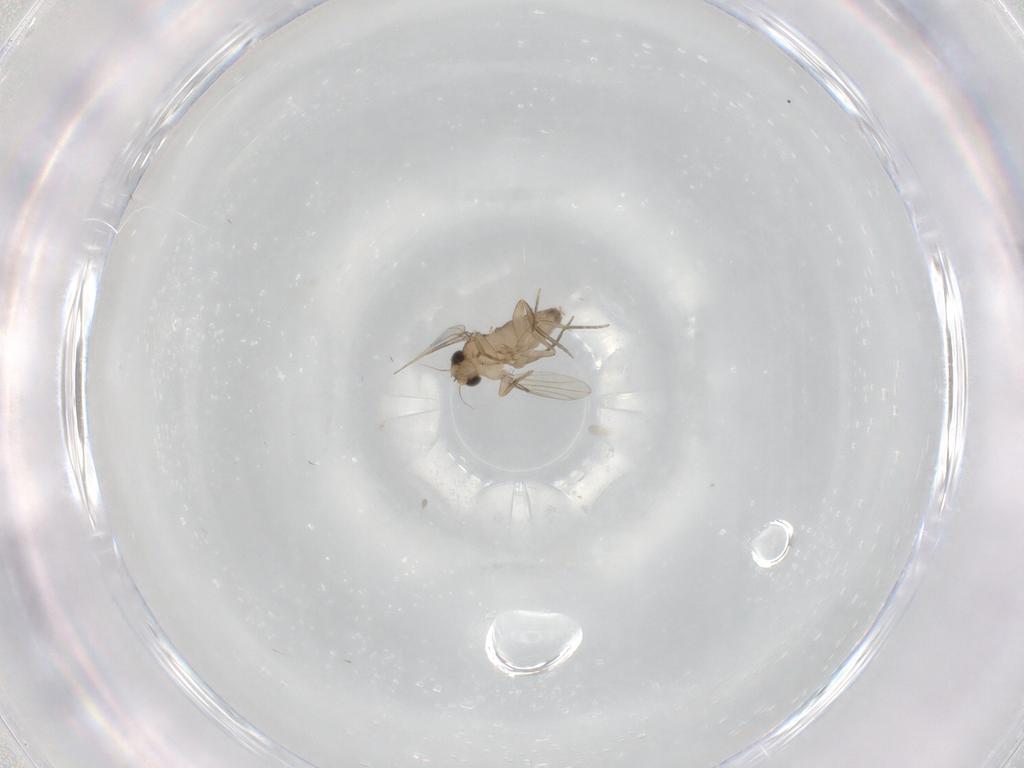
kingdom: Animalia
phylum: Arthropoda
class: Insecta
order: Diptera
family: Phoridae
